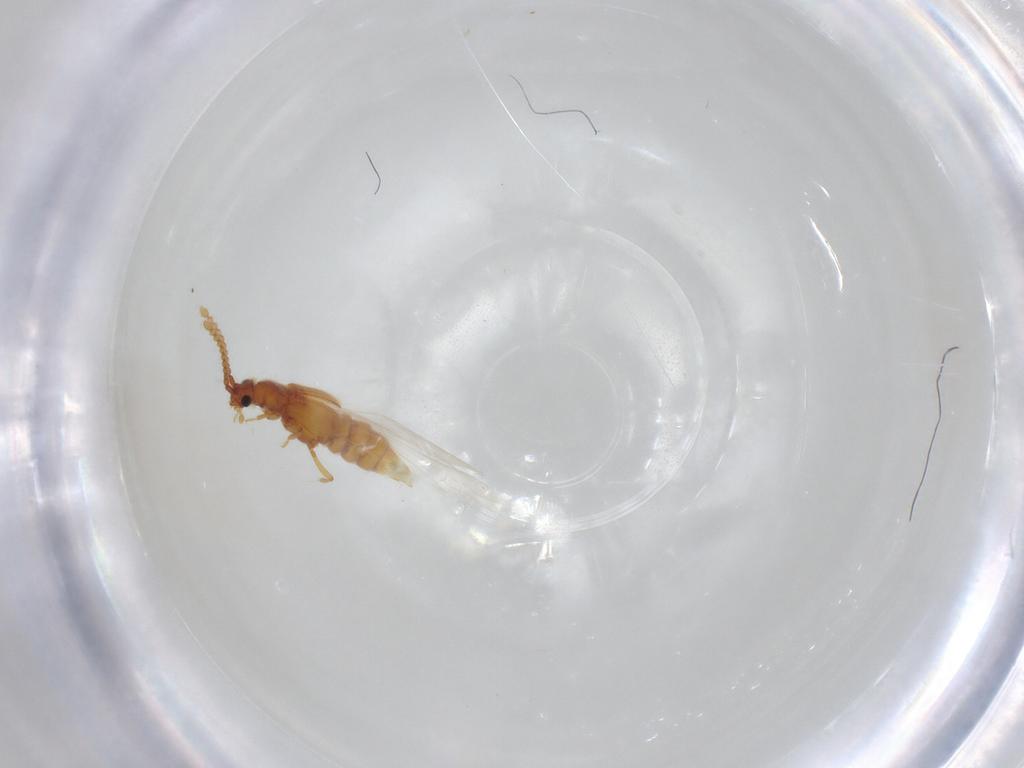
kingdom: Animalia
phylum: Arthropoda
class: Insecta
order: Coleoptera
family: Staphylinidae
